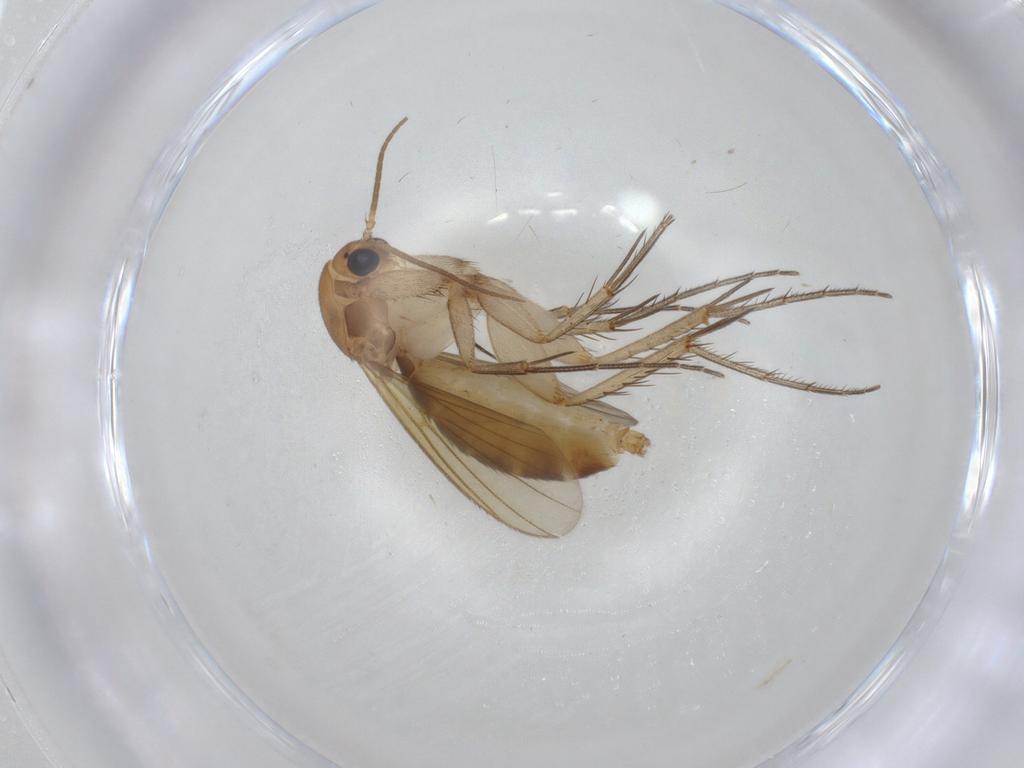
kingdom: Animalia
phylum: Arthropoda
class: Insecta
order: Diptera
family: Mycetophilidae
